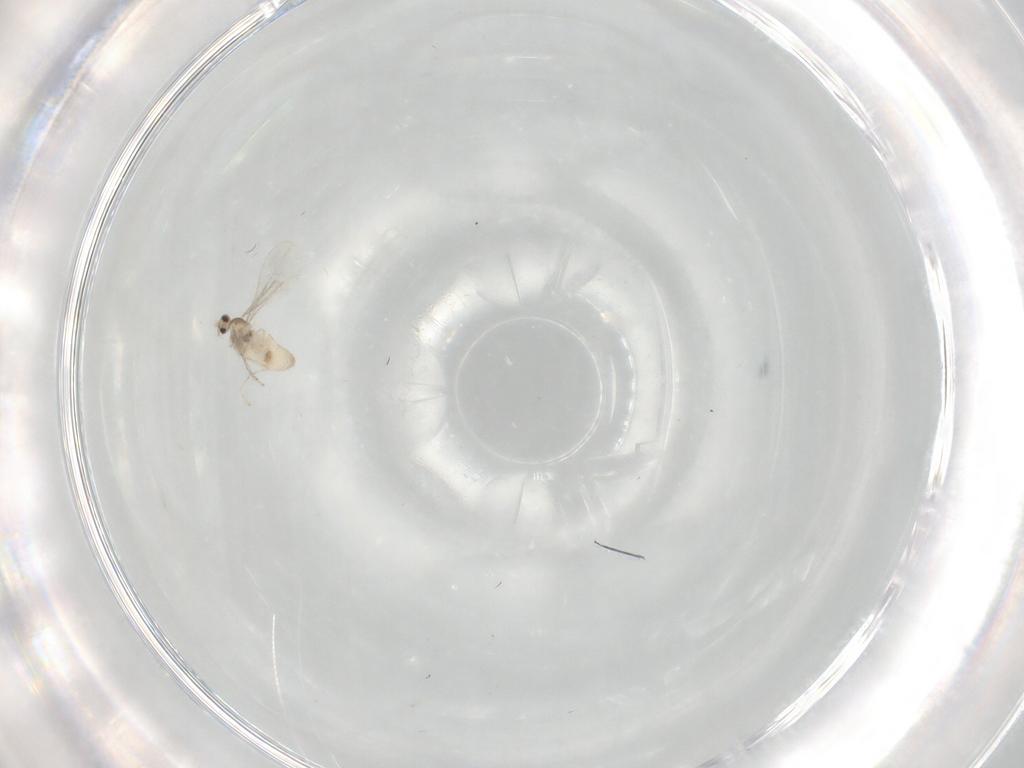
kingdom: Animalia
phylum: Arthropoda
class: Insecta
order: Diptera
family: Cecidomyiidae
